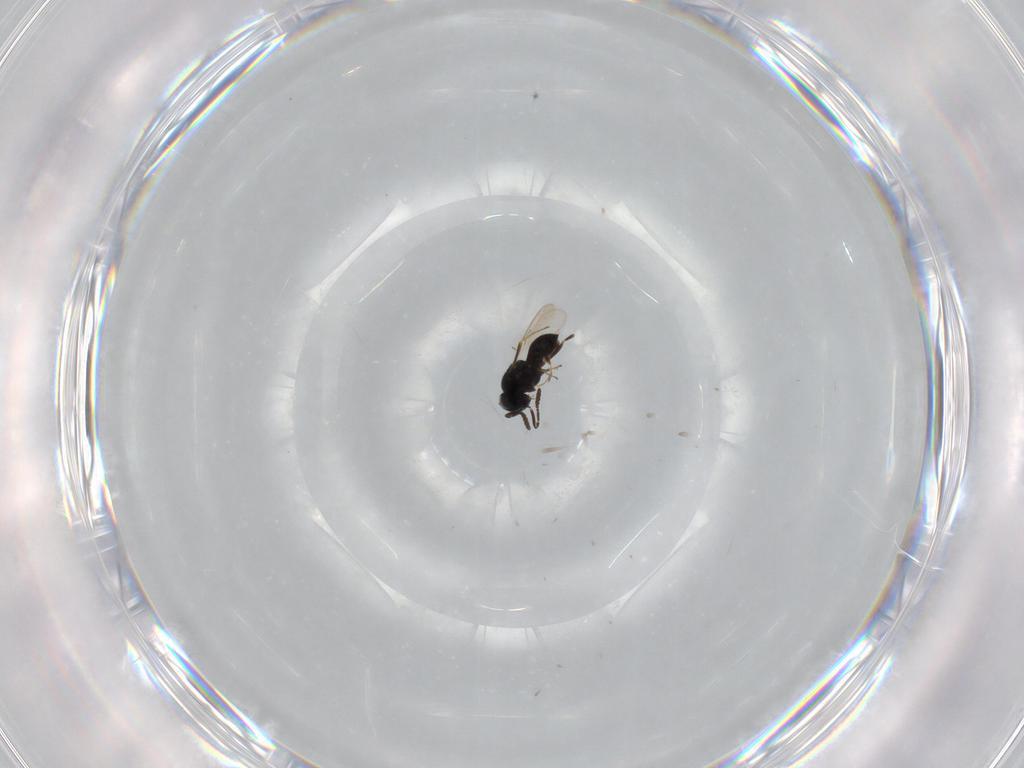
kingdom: Animalia
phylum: Arthropoda
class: Insecta
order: Hymenoptera
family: Scelionidae
